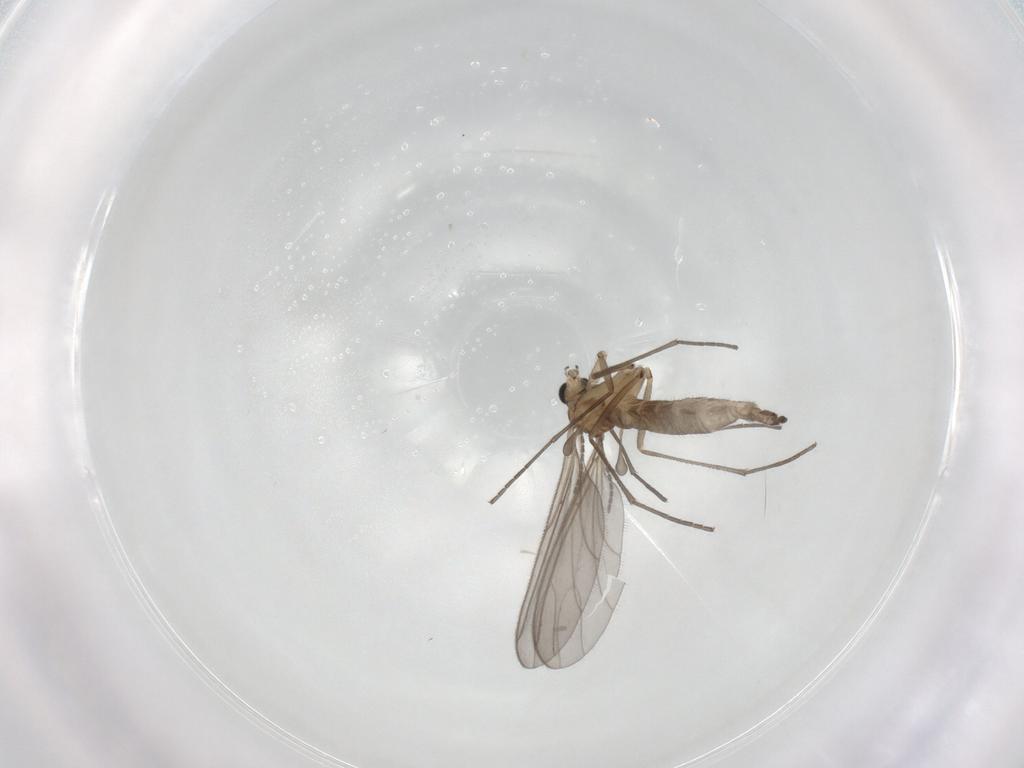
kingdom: Animalia
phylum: Arthropoda
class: Insecta
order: Diptera
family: Sciaridae
